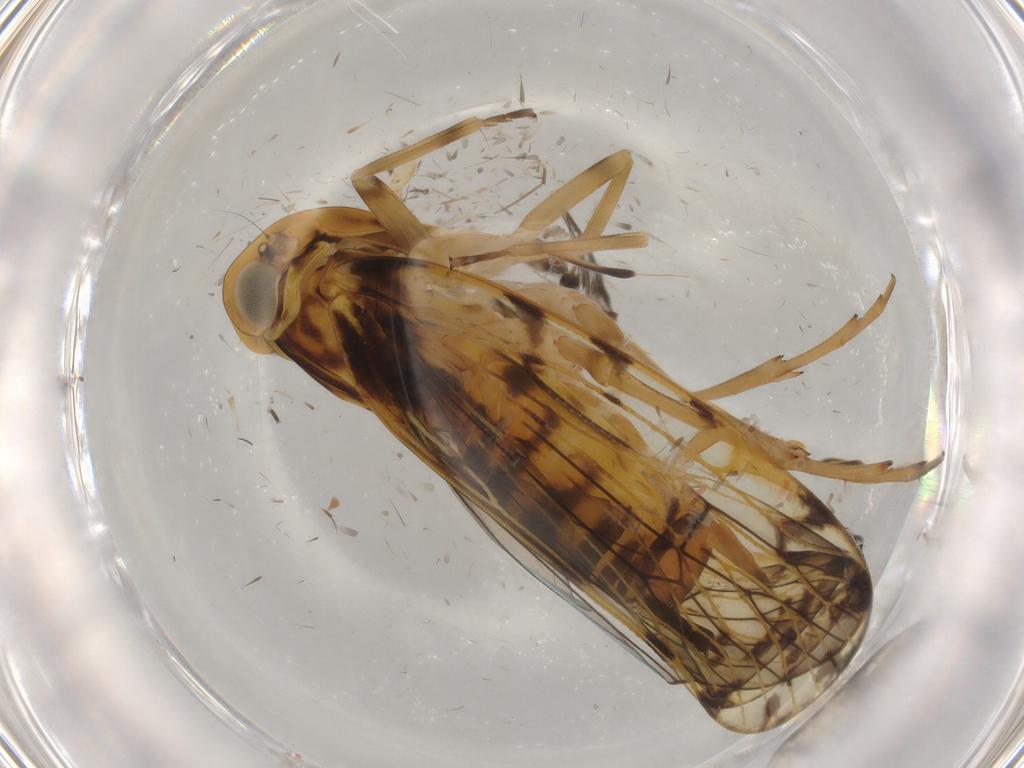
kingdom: Animalia
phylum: Arthropoda
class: Insecta
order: Hemiptera
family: Cixiidae
